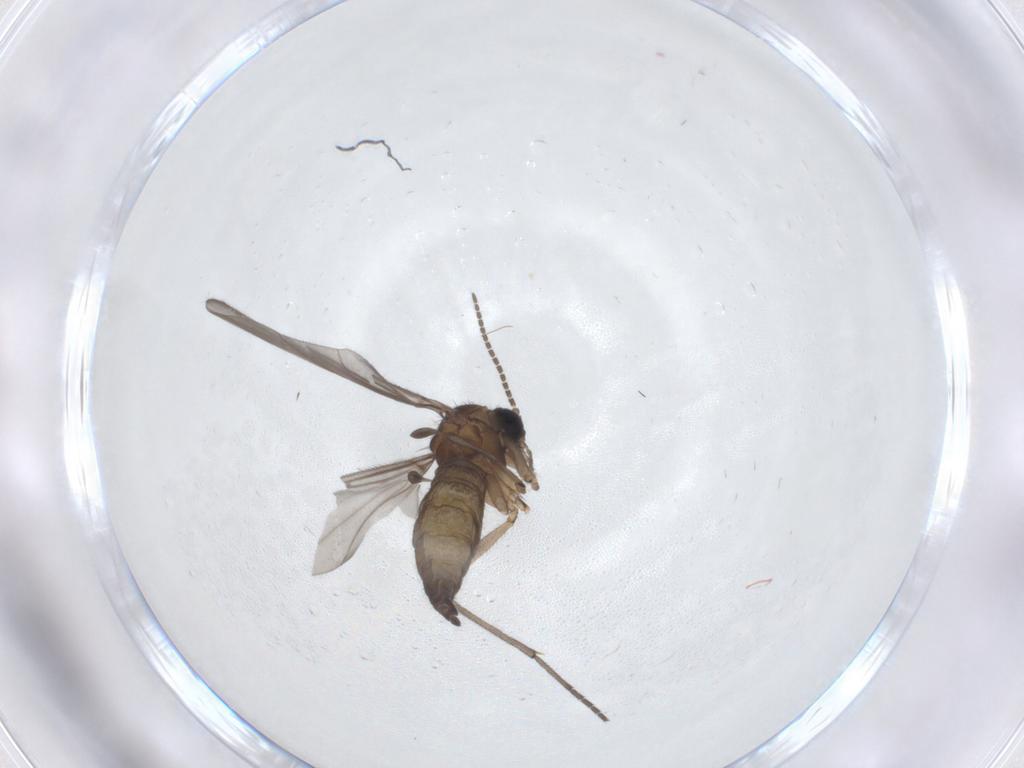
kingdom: Animalia
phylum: Arthropoda
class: Insecta
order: Diptera
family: Sciaridae
